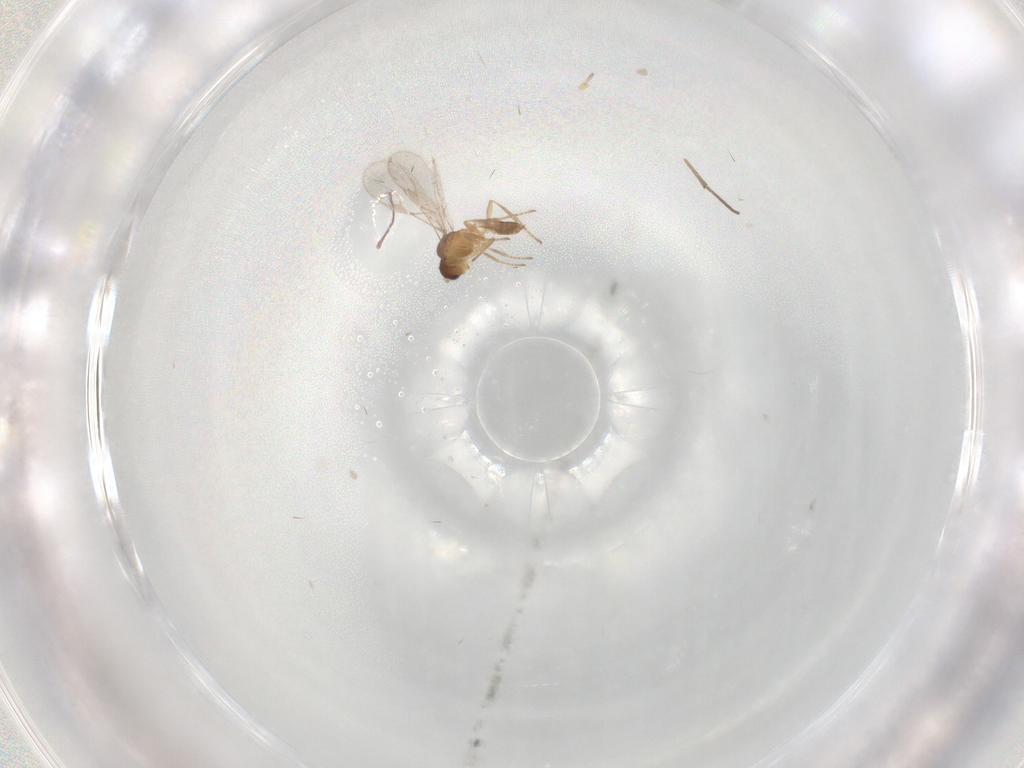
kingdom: Animalia
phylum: Arthropoda
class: Insecta
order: Hymenoptera
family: Braconidae
